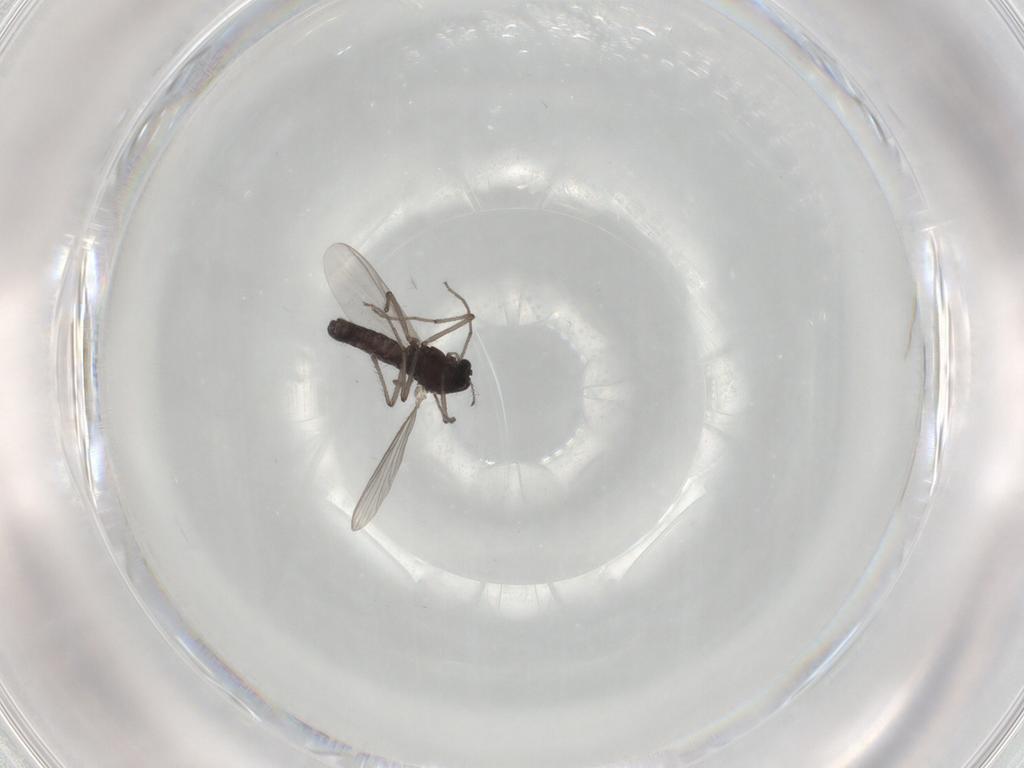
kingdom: Animalia
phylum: Arthropoda
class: Insecta
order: Diptera
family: Chironomidae
